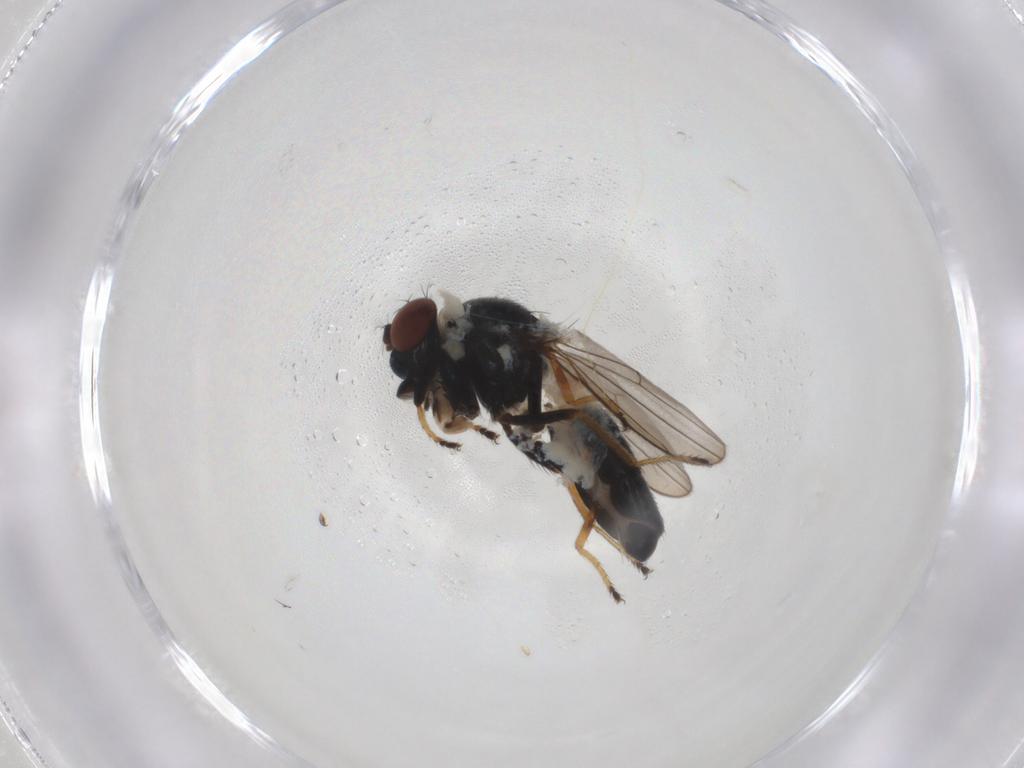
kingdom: Animalia
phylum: Arthropoda
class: Insecta
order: Diptera
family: Ephydridae
